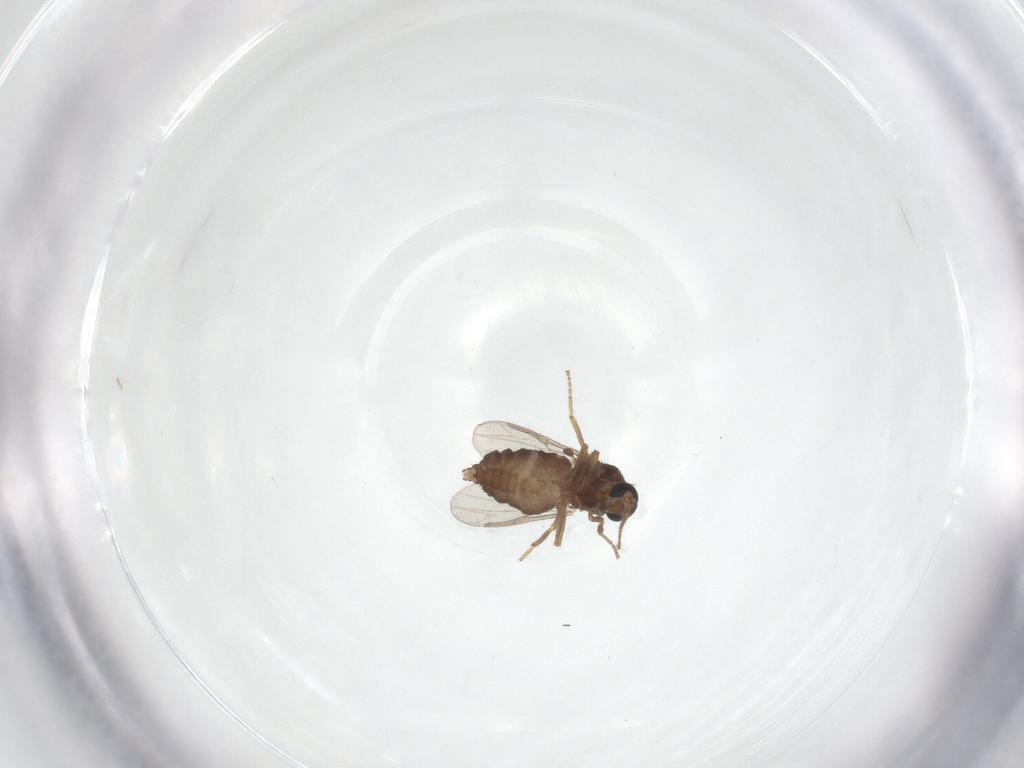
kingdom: Animalia
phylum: Arthropoda
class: Insecta
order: Diptera
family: Ceratopogonidae
